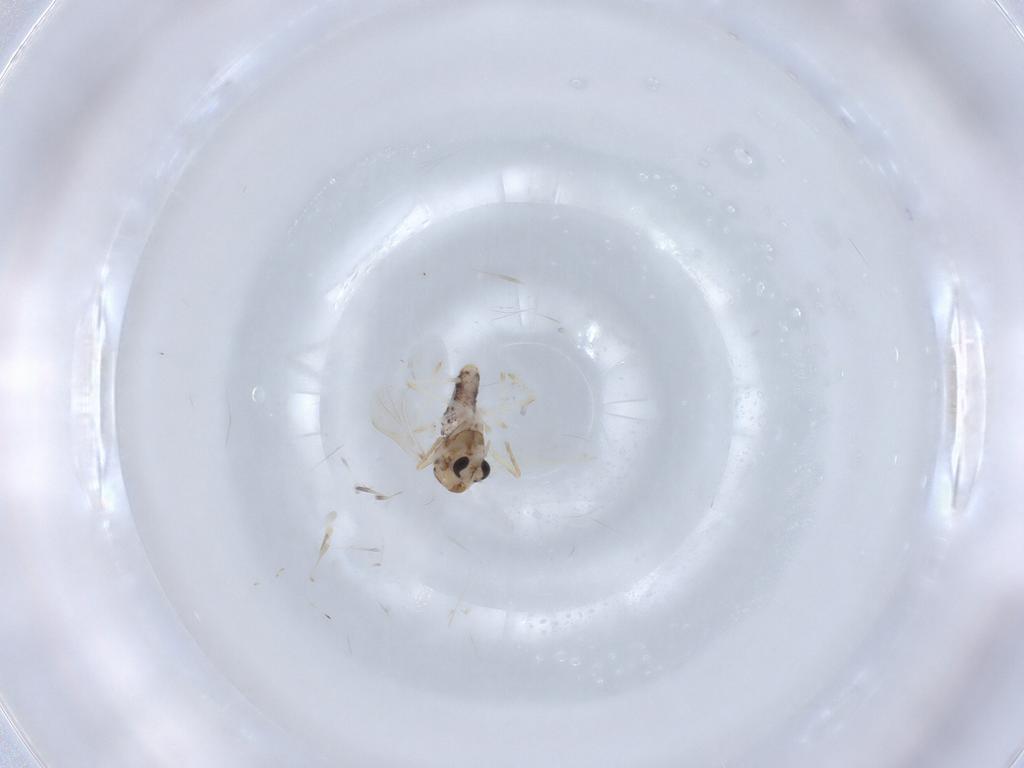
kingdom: Animalia
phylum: Arthropoda
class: Insecta
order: Diptera
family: Chironomidae
